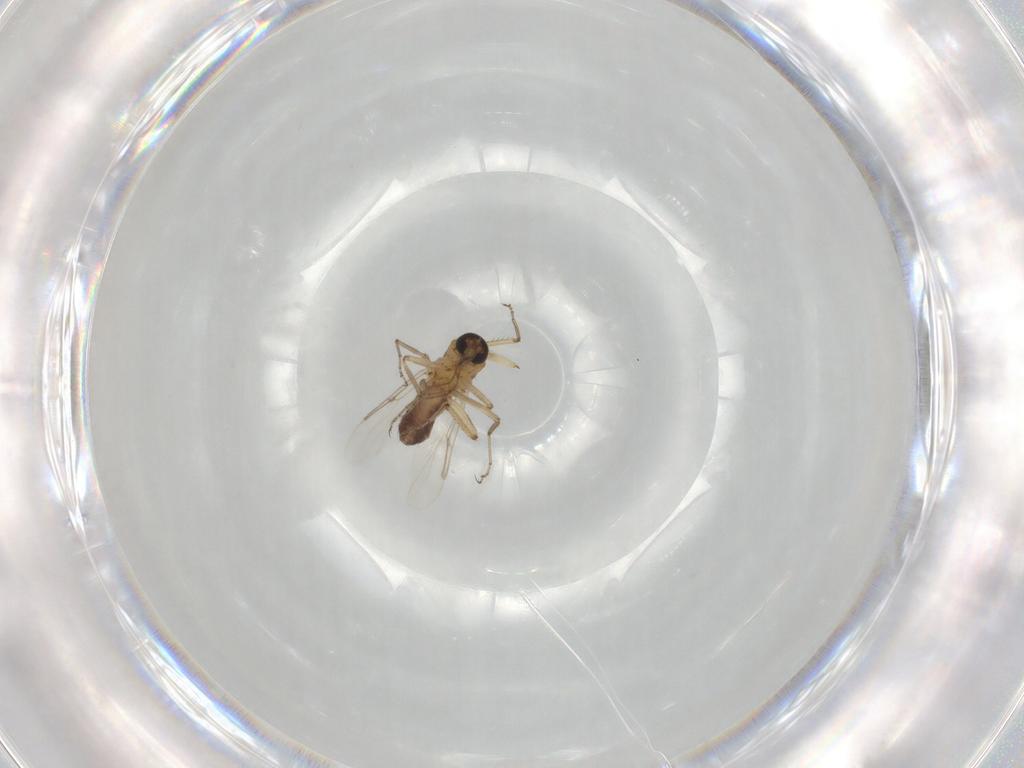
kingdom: Animalia
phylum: Arthropoda
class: Insecta
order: Diptera
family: Ceratopogonidae
